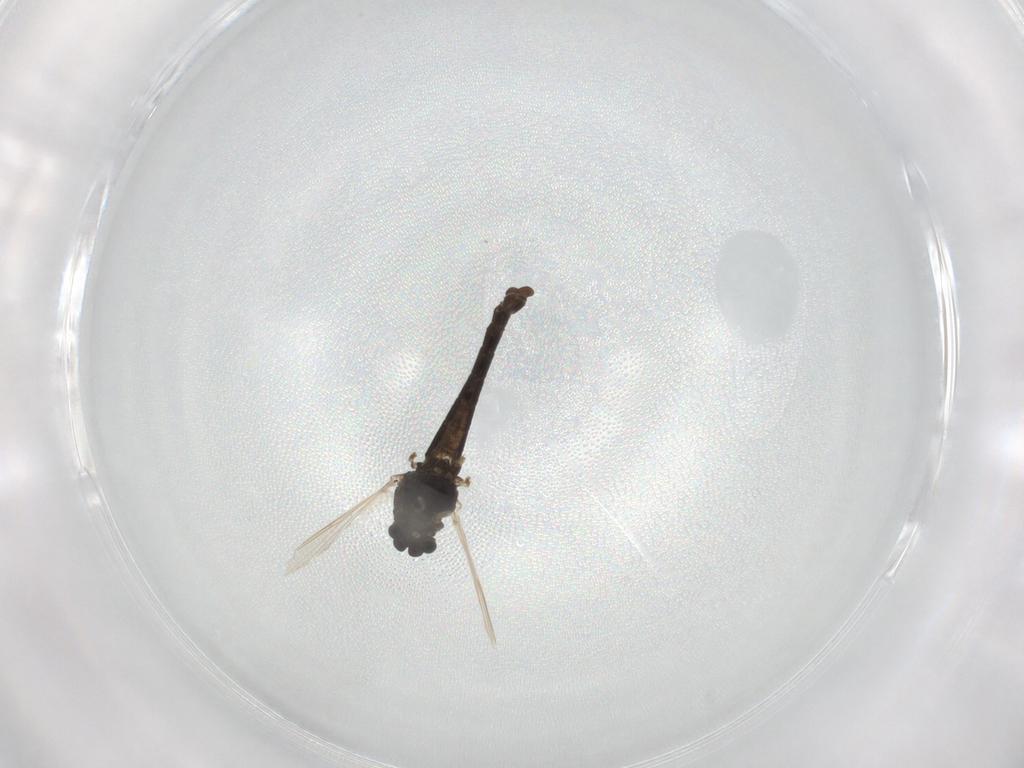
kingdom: Animalia
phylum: Arthropoda
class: Insecta
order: Diptera
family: Chironomidae
